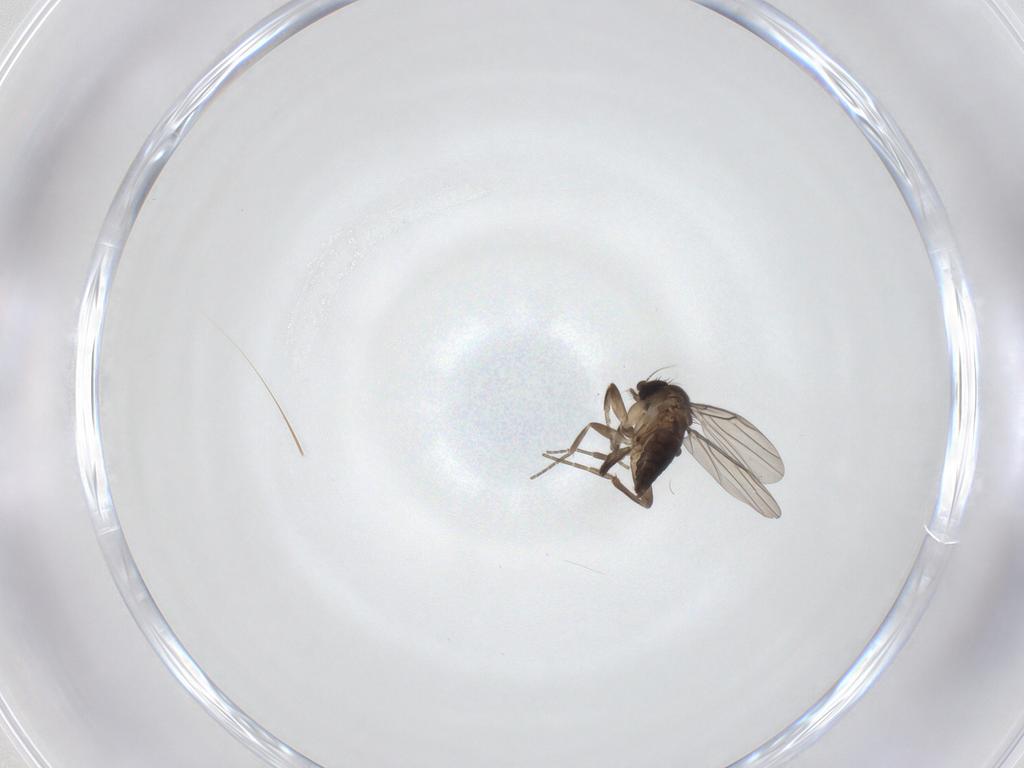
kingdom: Animalia
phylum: Arthropoda
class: Insecta
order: Diptera
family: Phoridae
